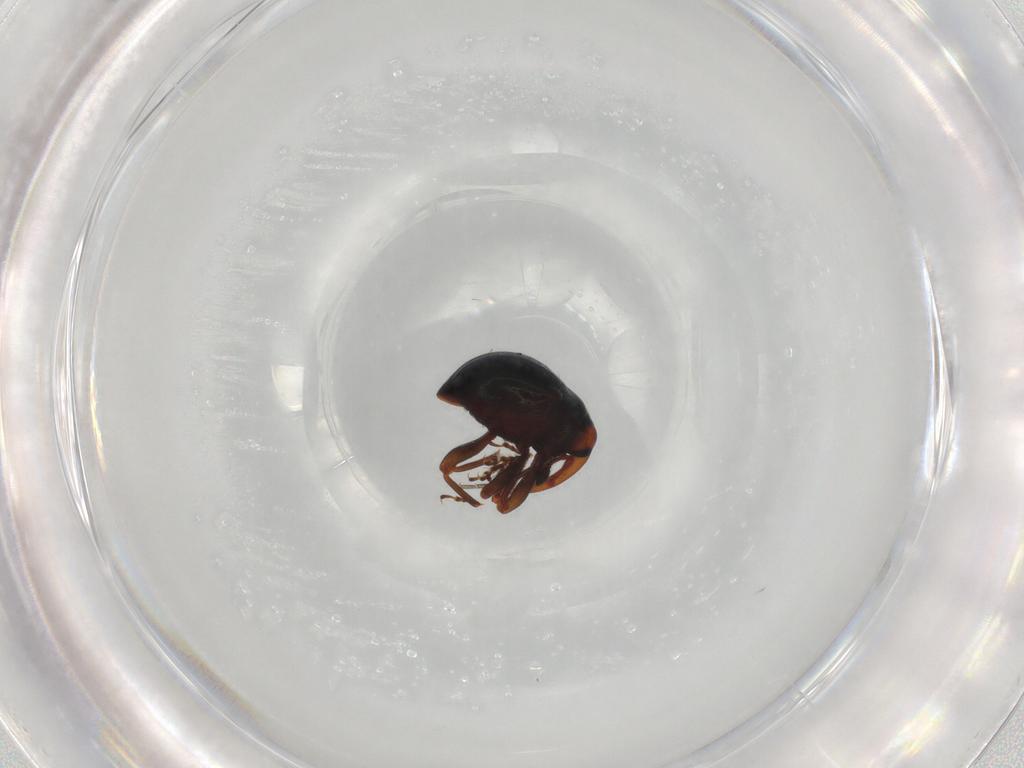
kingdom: Animalia
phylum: Arthropoda
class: Insecta
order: Coleoptera
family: Curculionidae
